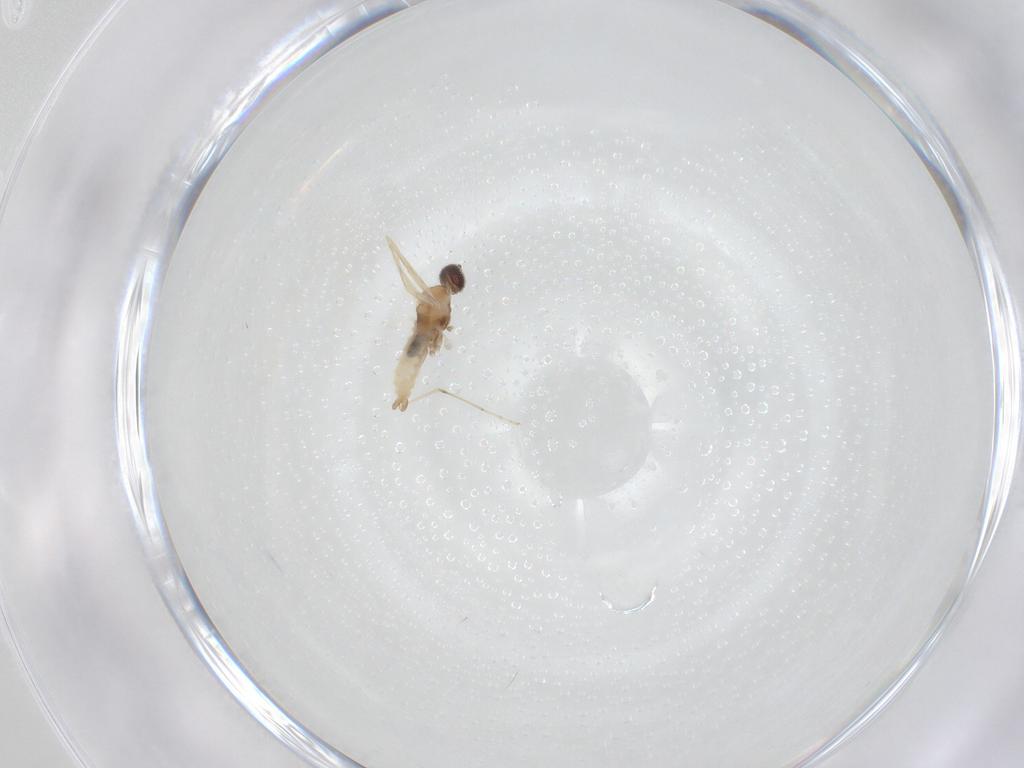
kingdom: Animalia
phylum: Arthropoda
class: Insecta
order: Diptera
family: Cecidomyiidae
